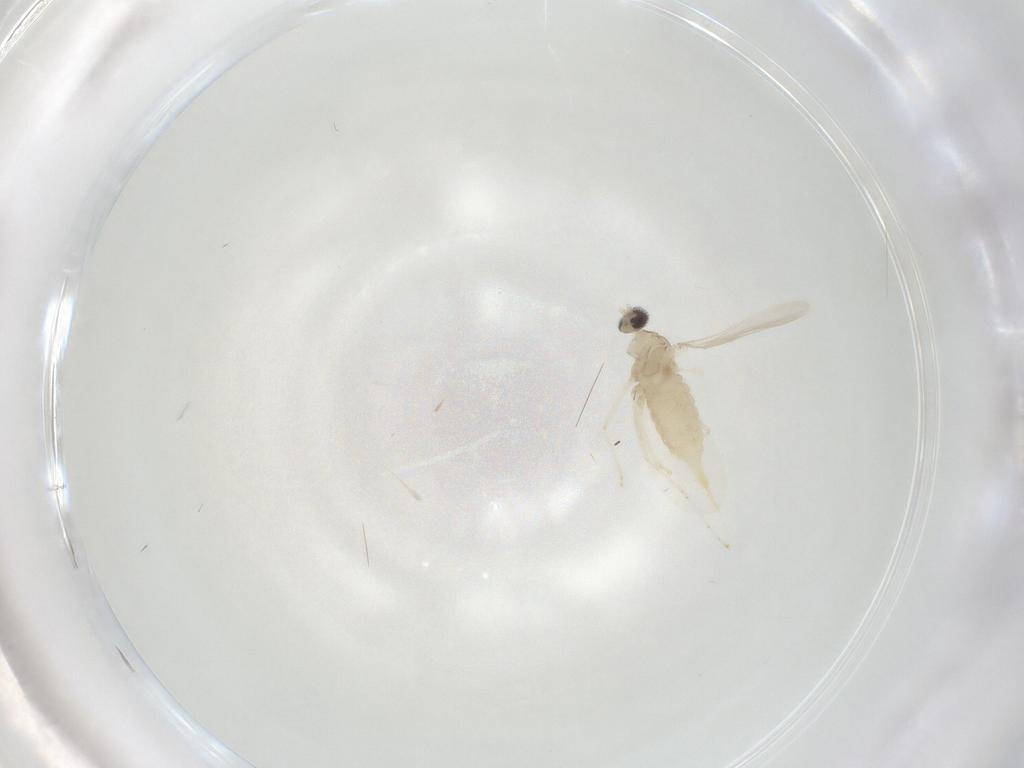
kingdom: Animalia
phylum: Arthropoda
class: Insecta
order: Diptera
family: Cecidomyiidae
